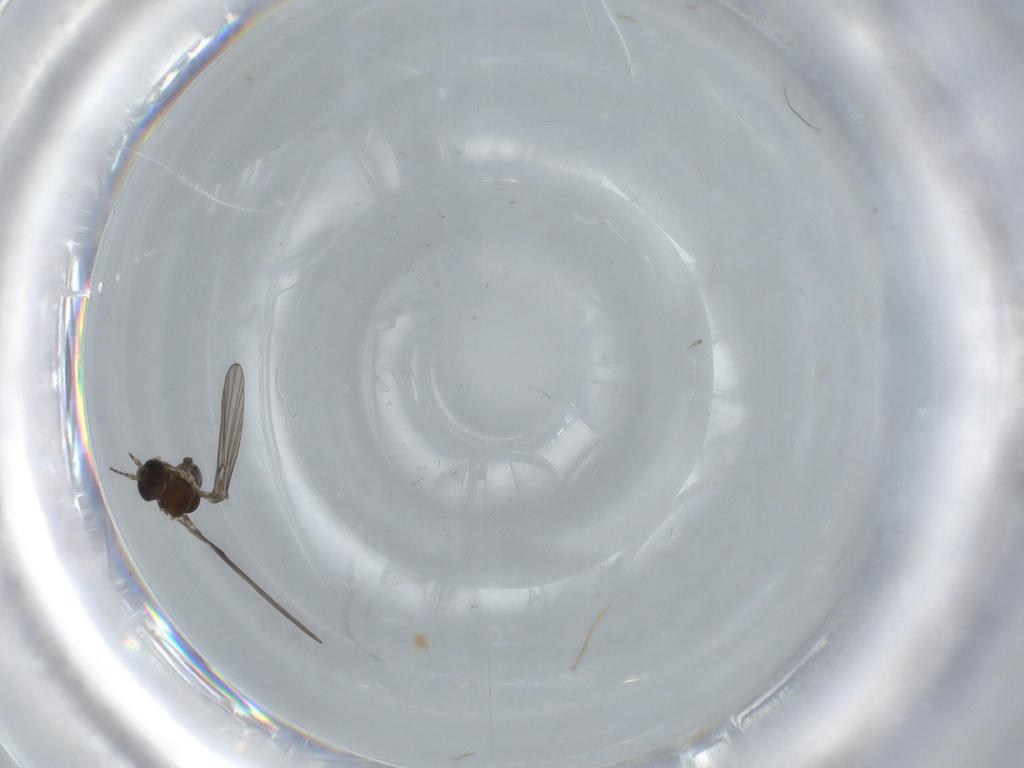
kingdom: Animalia
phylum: Arthropoda
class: Insecta
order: Diptera
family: Psychodidae
